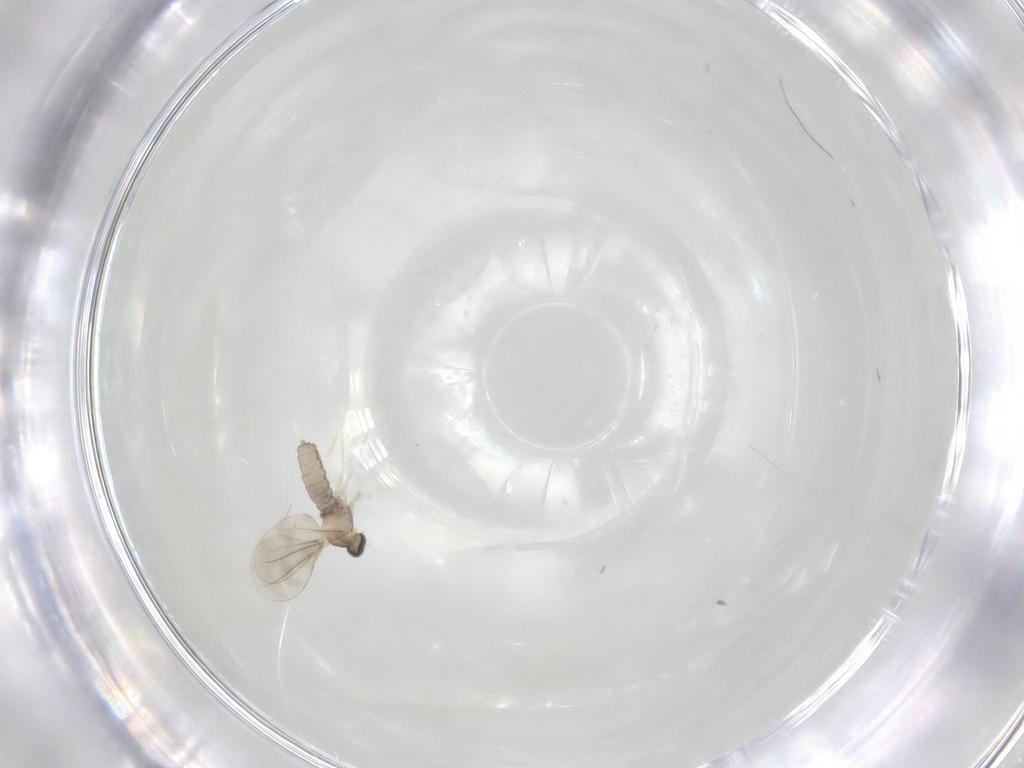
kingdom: Animalia
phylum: Arthropoda
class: Insecta
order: Diptera
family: Cecidomyiidae
